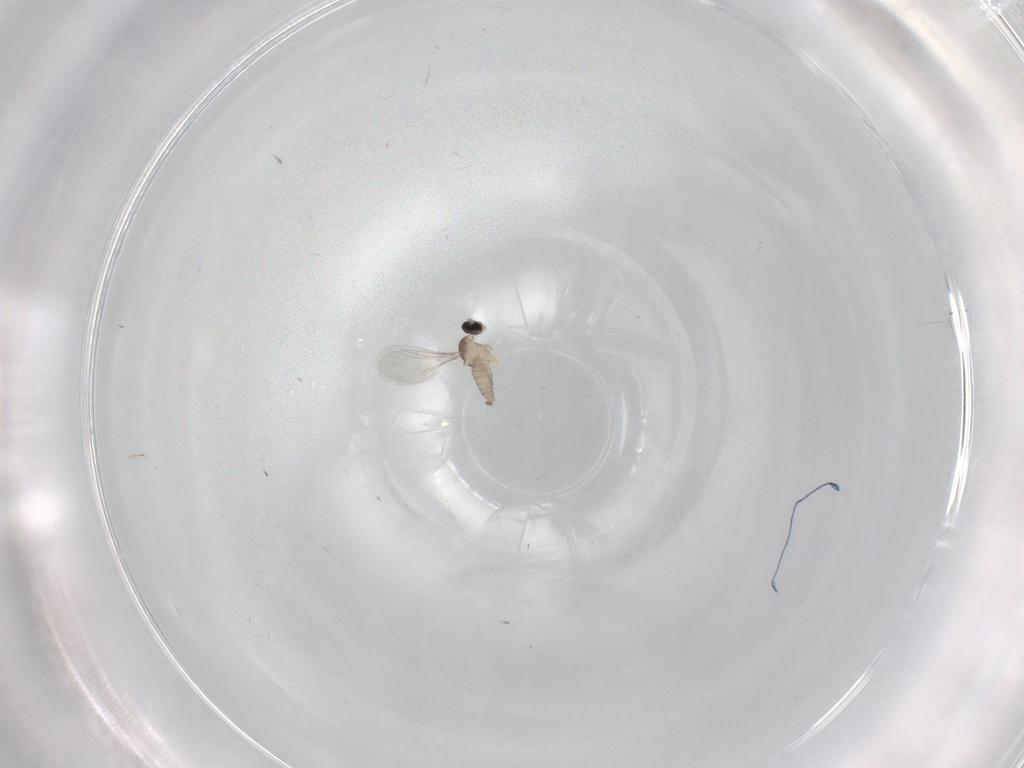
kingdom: Animalia
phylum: Arthropoda
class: Insecta
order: Diptera
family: Cecidomyiidae
